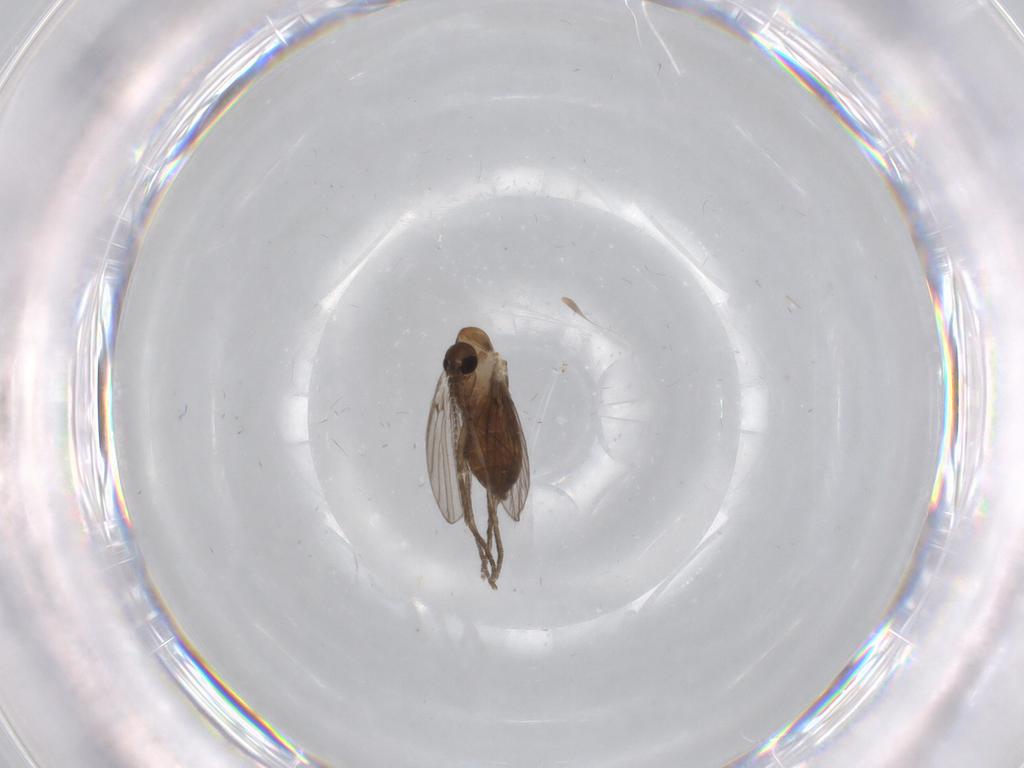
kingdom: Animalia
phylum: Arthropoda
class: Insecta
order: Diptera
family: Psychodidae
